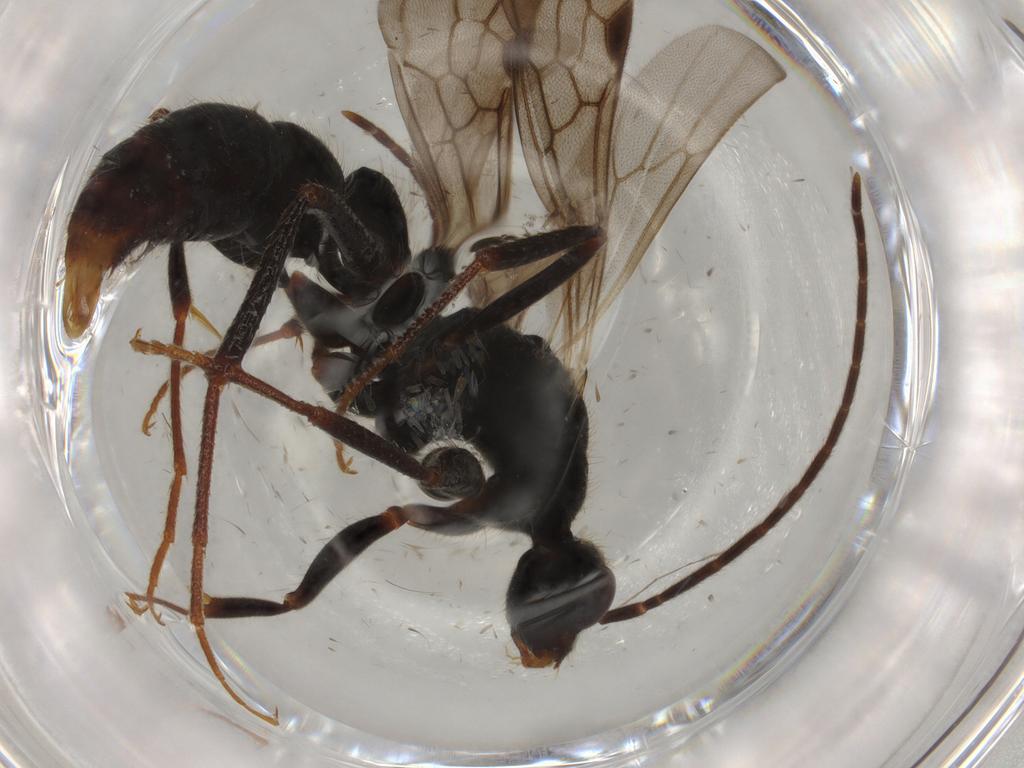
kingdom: Animalia
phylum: Arthropoda
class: Insecta
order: Hymenoptera
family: Formicidae
